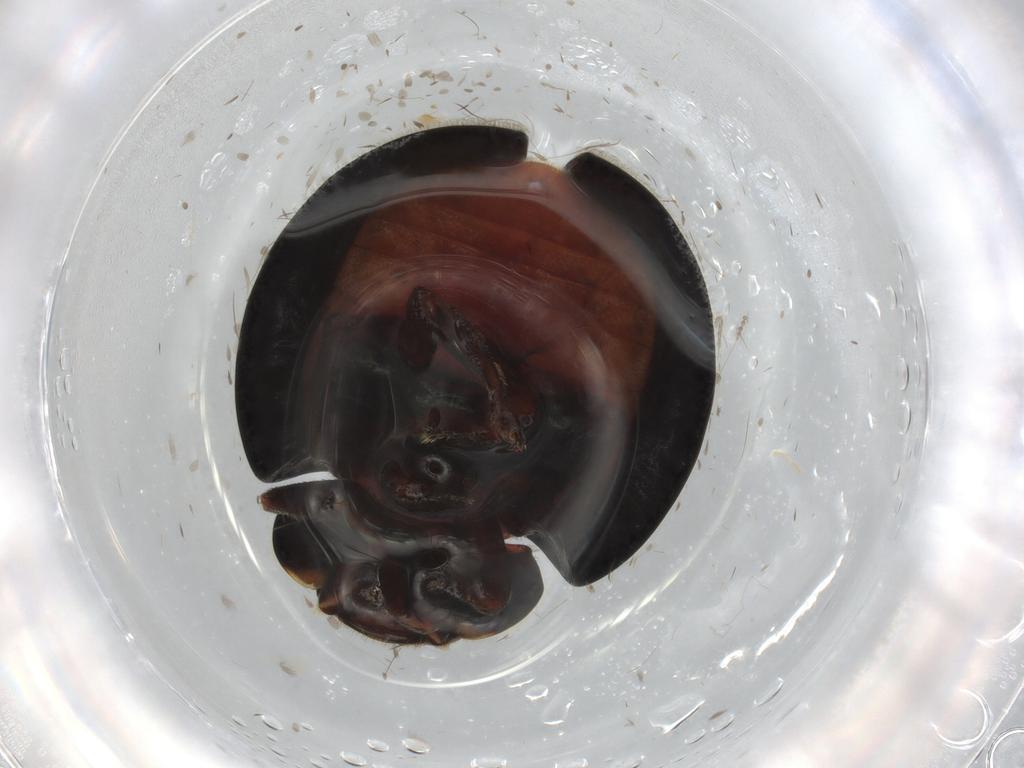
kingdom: Animalia
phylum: Arthropoda
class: Insecta
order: Coleoptera
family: Coccinellidae
